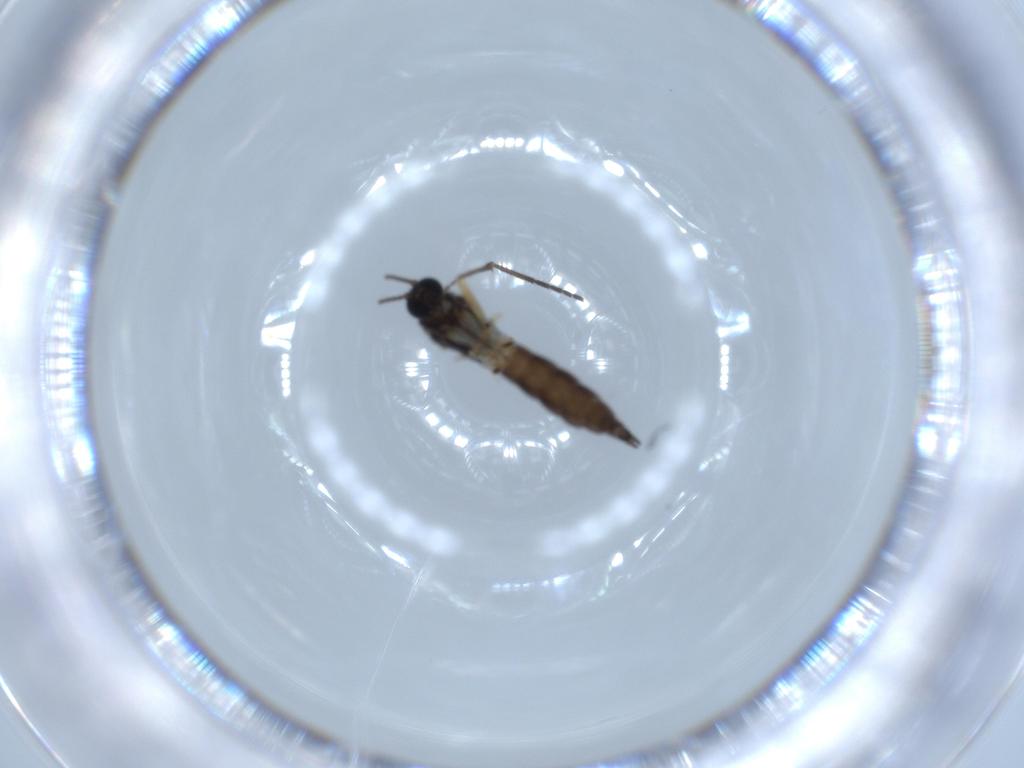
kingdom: Animalia
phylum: Arthropoda
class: Insecta
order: Diptera
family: Sciaridae
